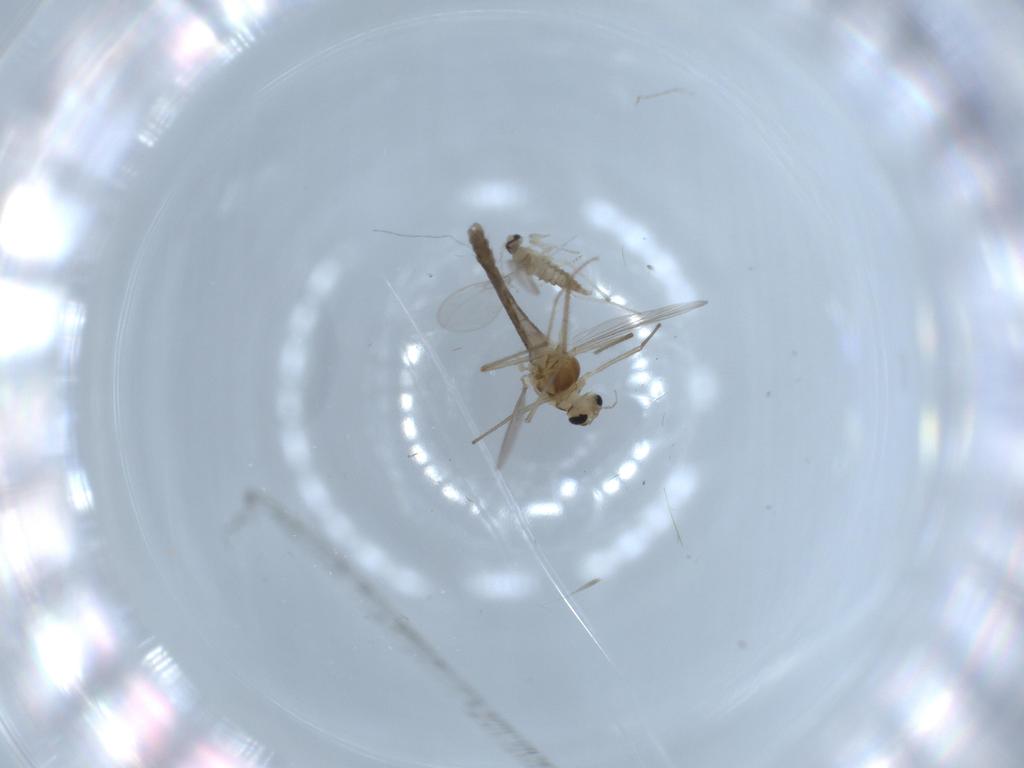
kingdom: Animalia
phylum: Arthropoda
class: Insecta
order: Diptera
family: Chironomidae
